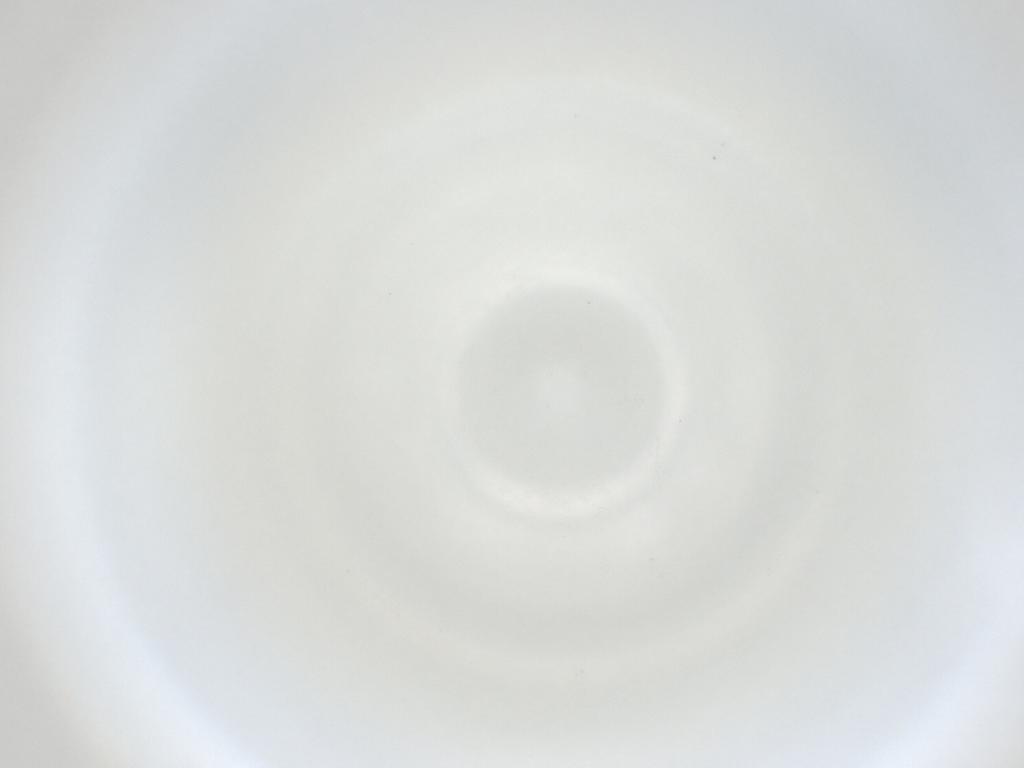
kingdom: Animalia
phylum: Arthropoda
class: Insecta
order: Diptera
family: Cecidomyiidae
